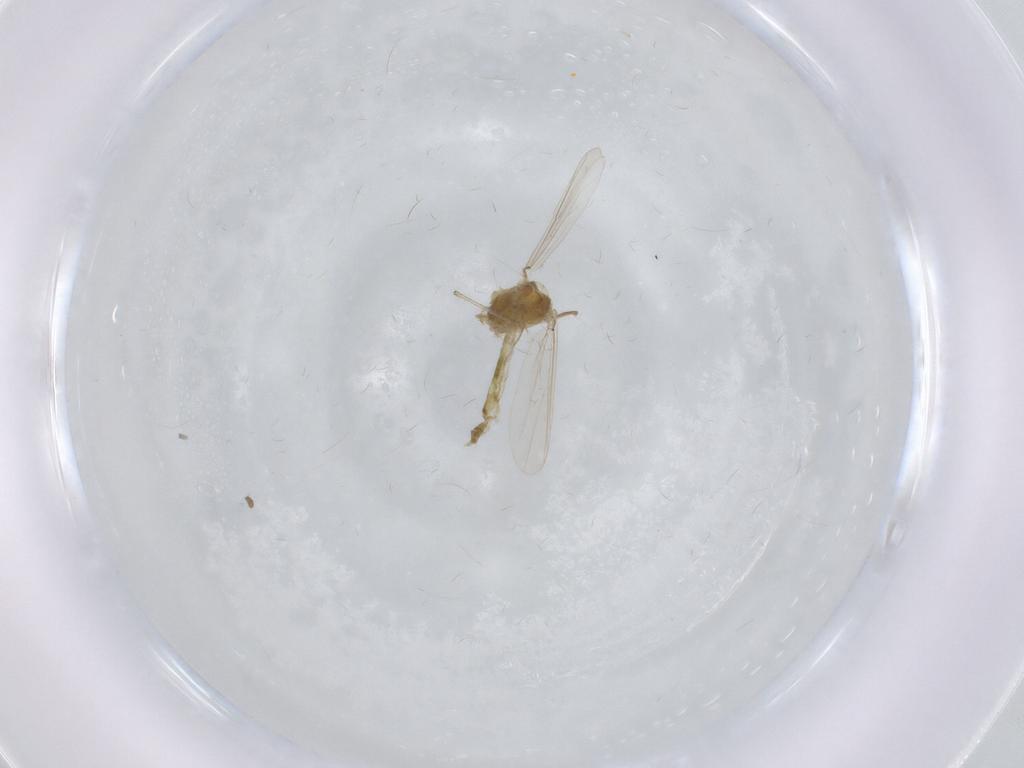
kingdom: Animalia
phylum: Arthropoda
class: Insecta
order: Diptera
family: Chironomidae
